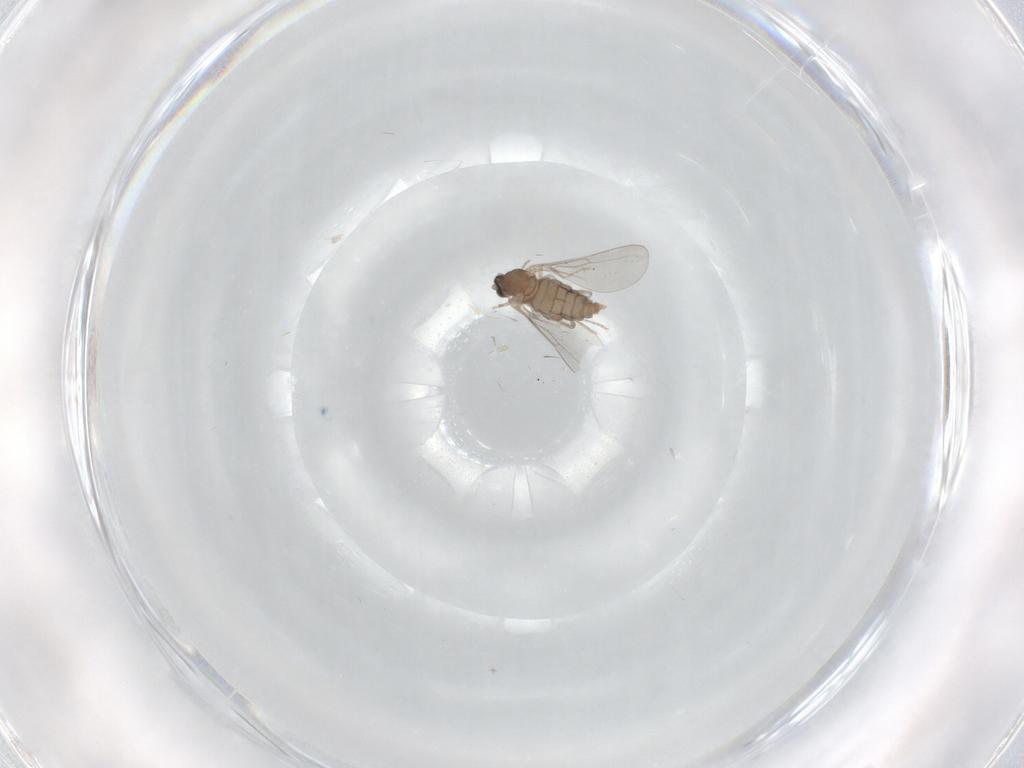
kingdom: Animalia
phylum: Arthropoda
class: Insecta
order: Diptera
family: Cecidomyiidae
